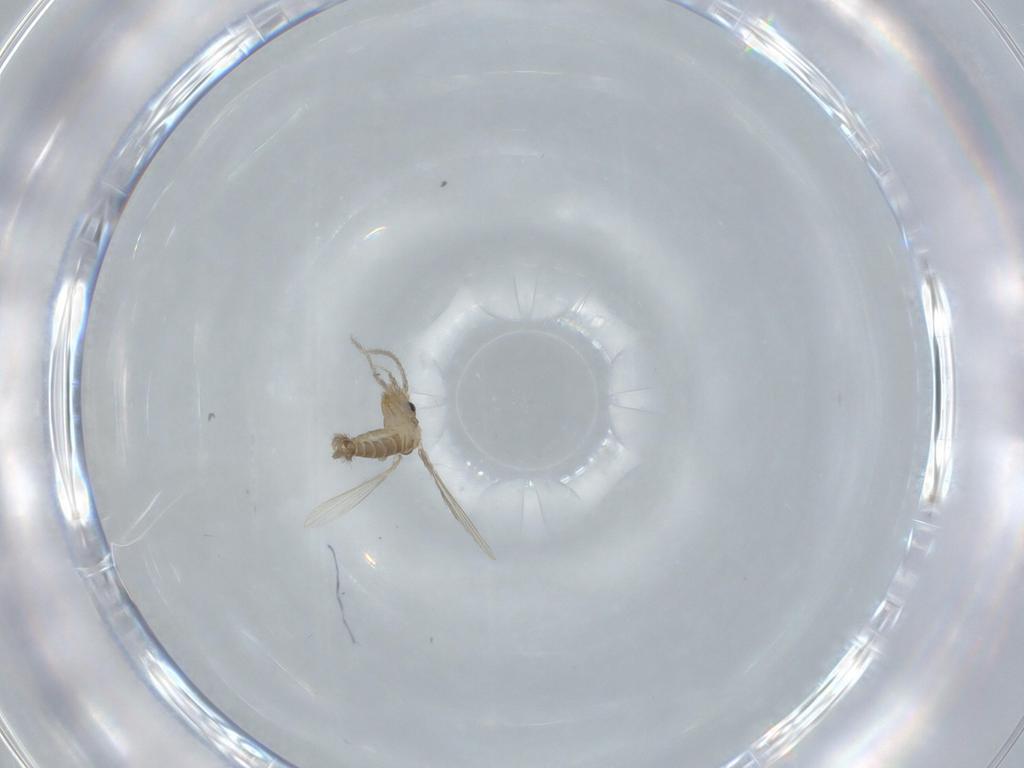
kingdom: Animalia
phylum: Arthropoda
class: Insecta
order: Diptera
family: Psychodidae
